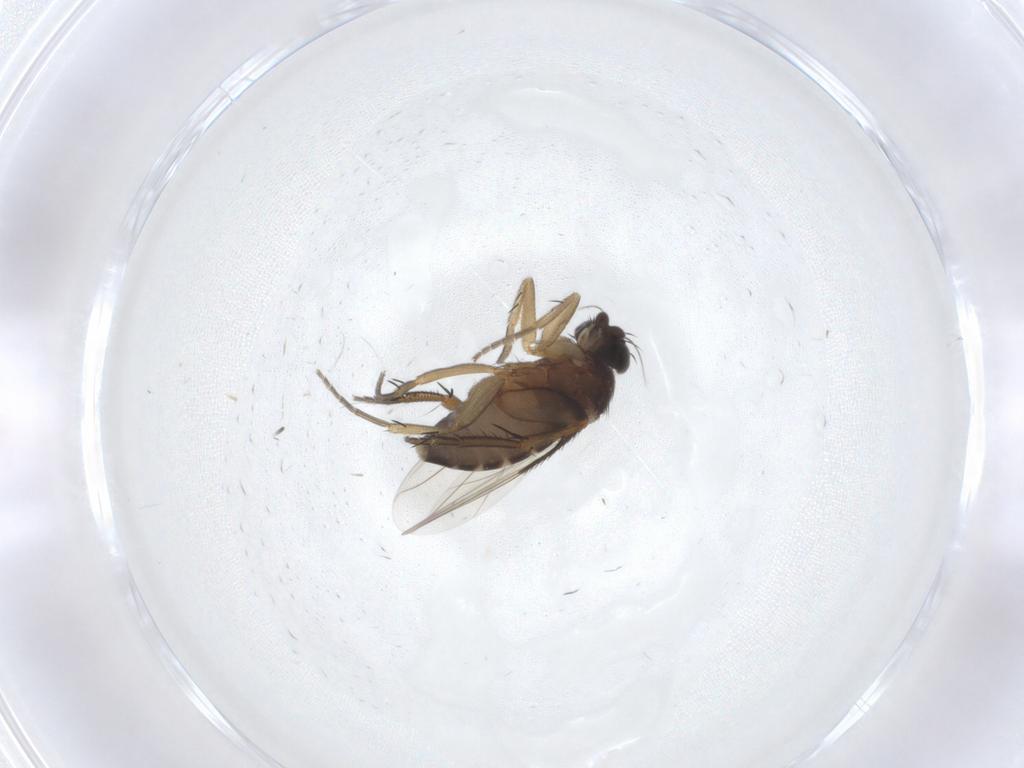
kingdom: Animalia
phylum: Arthropoda
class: Insecta
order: Diptera
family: Phoridae
